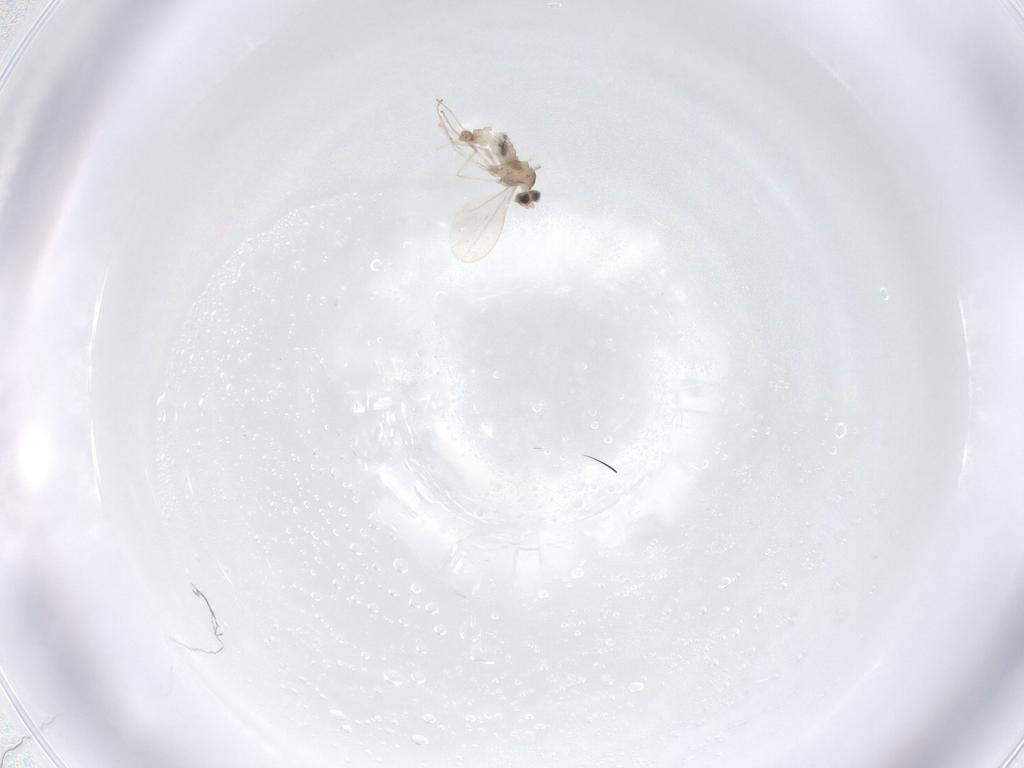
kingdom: Animalia
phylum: Arthropoda
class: Insecta
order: Diptera
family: Cecidomyiidae
